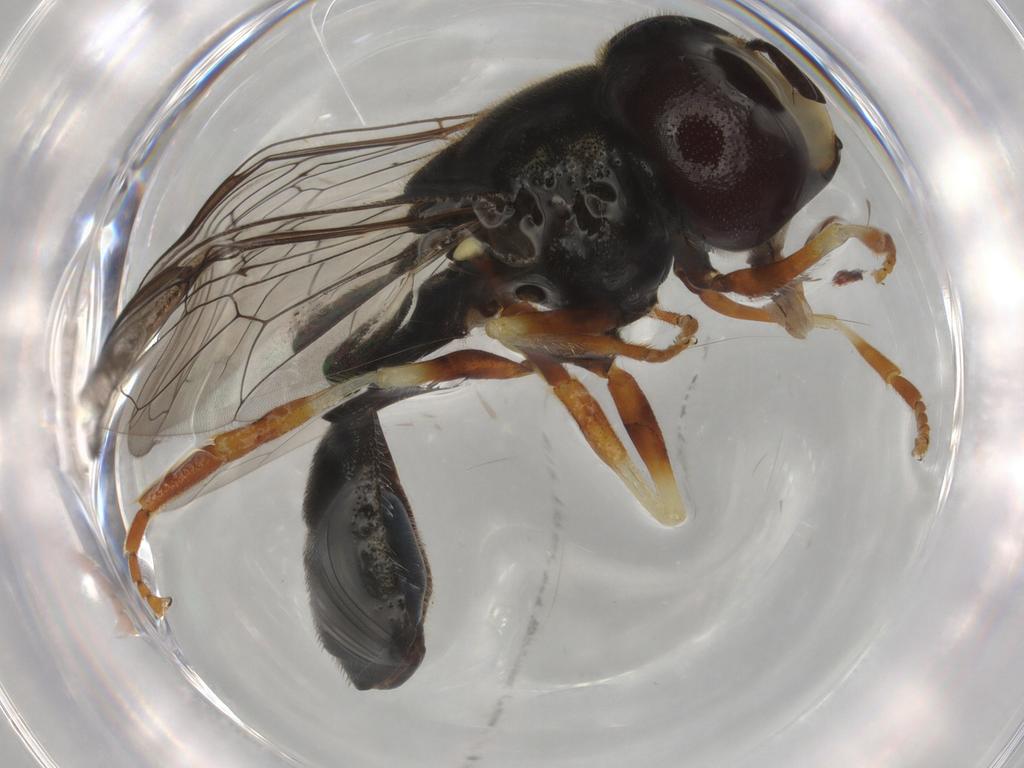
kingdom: Animalia
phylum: Arthropoda
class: Insecta
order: Diptera
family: Syrphidae
